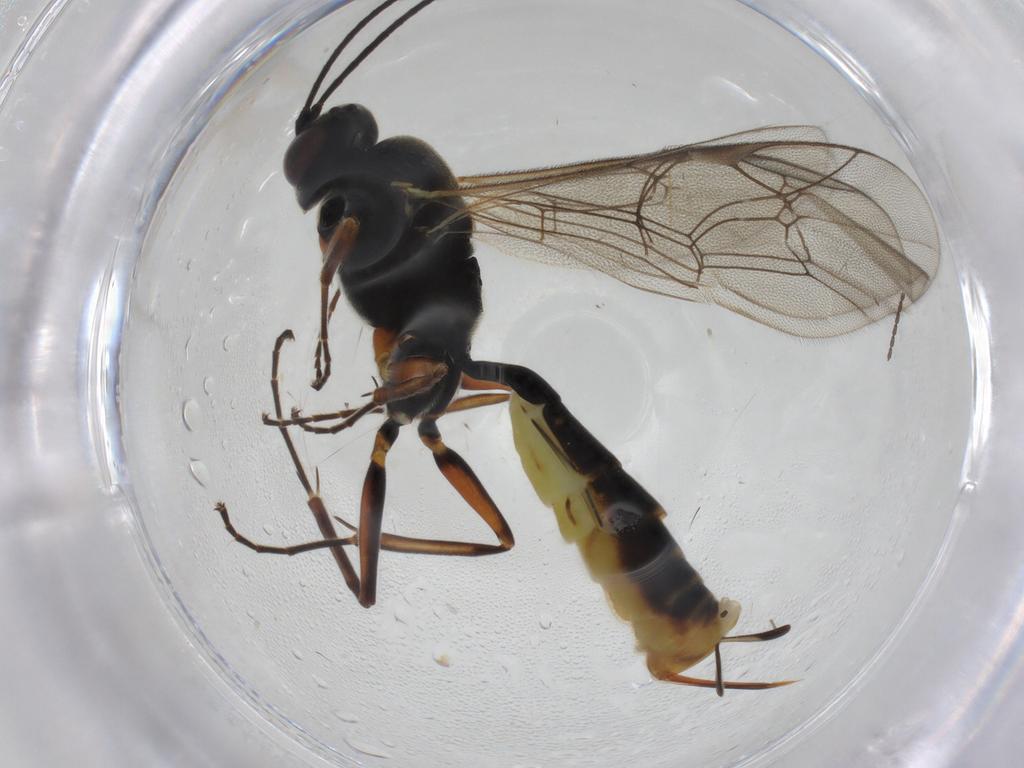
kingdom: Animalia
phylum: Arthropoda
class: Insecta
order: Hymenoptera
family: Ichneumonidae
